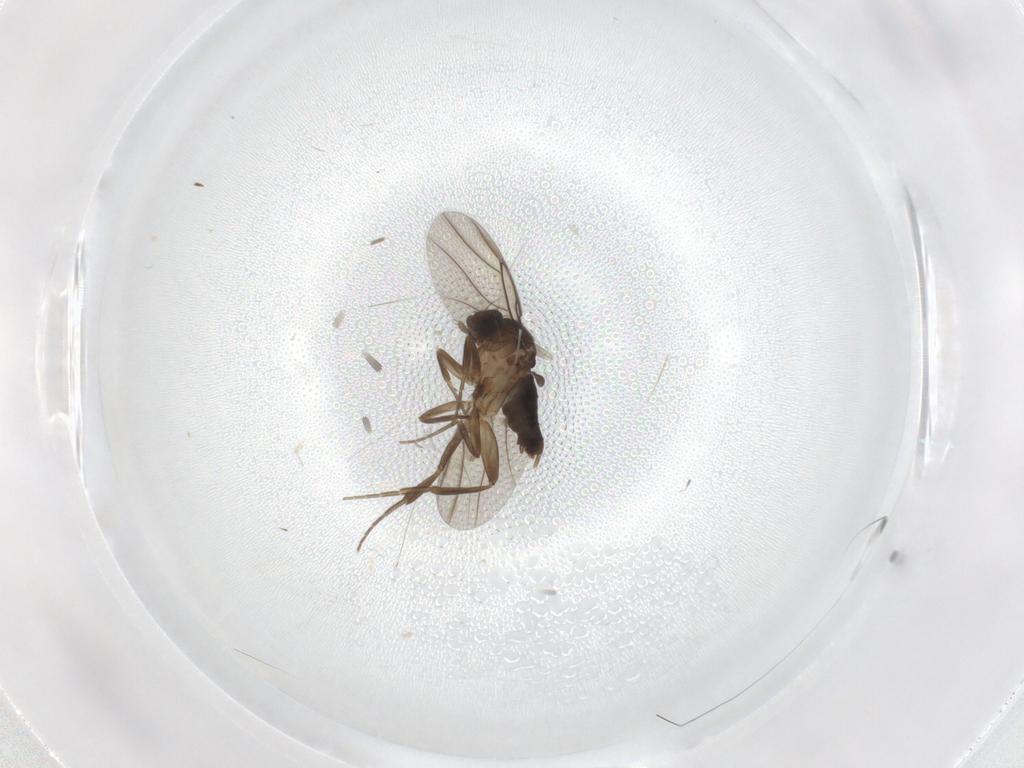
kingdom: Animalia
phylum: Arthropoda
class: Insecta
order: Diptera
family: Phoridae
